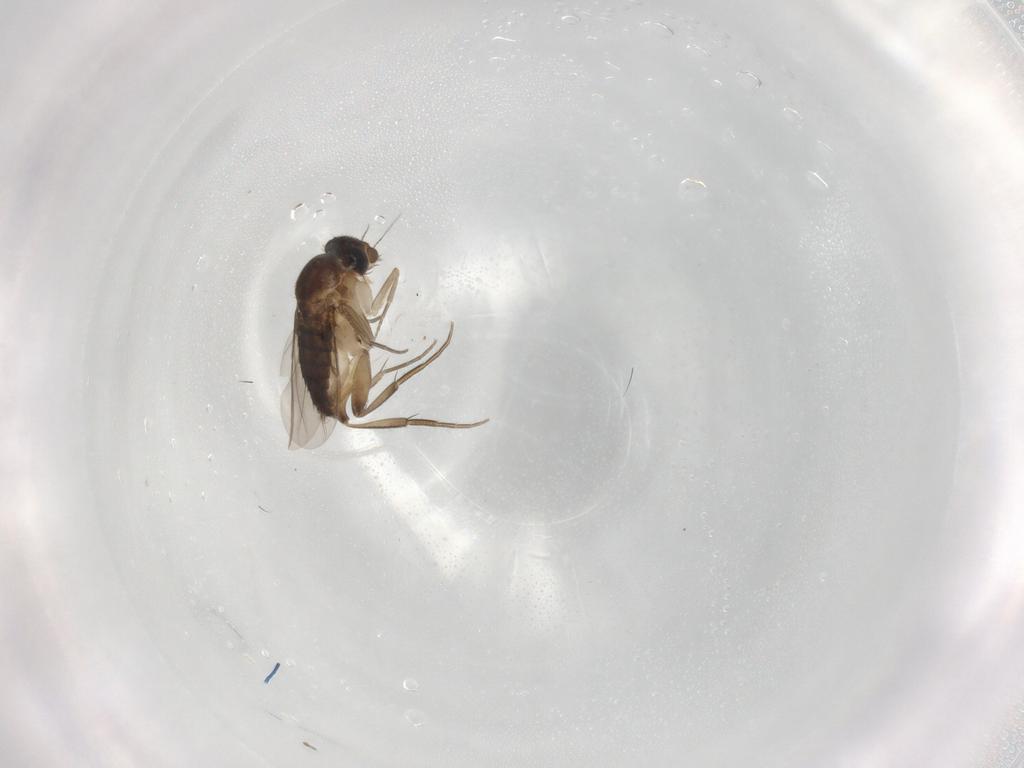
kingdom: Animalia
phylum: Arthropoda
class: Insecta
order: Diptera
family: Phoridae
